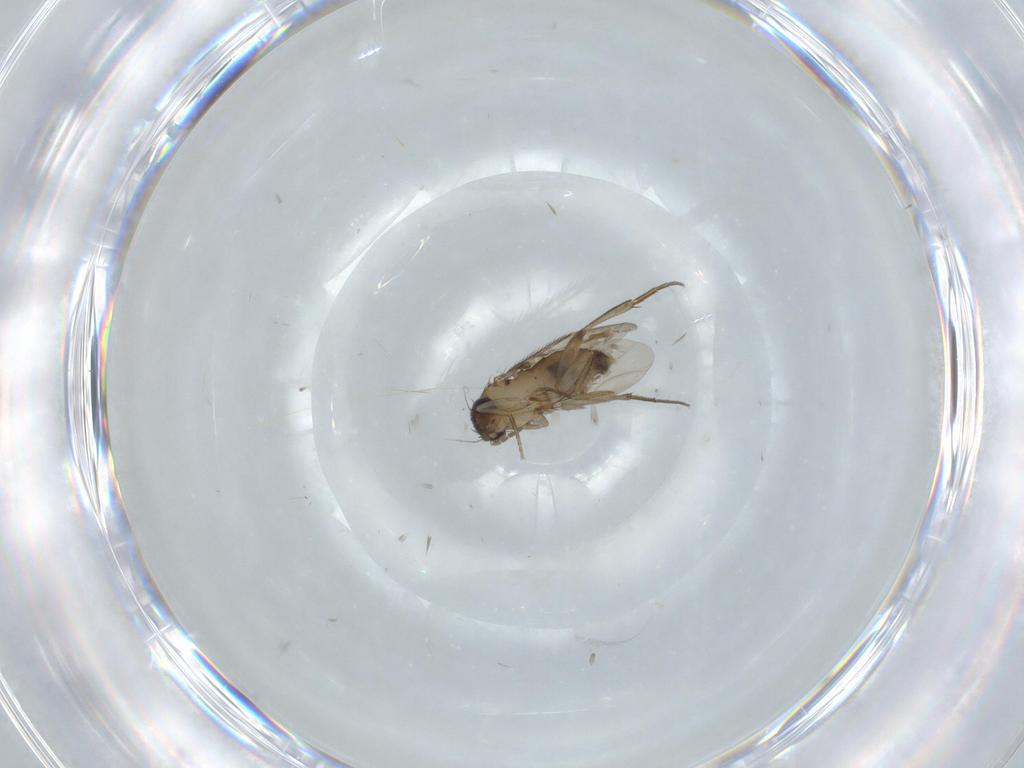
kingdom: Animalia
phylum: Arthropoda
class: Insecta
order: Diptera
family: Phoridae
